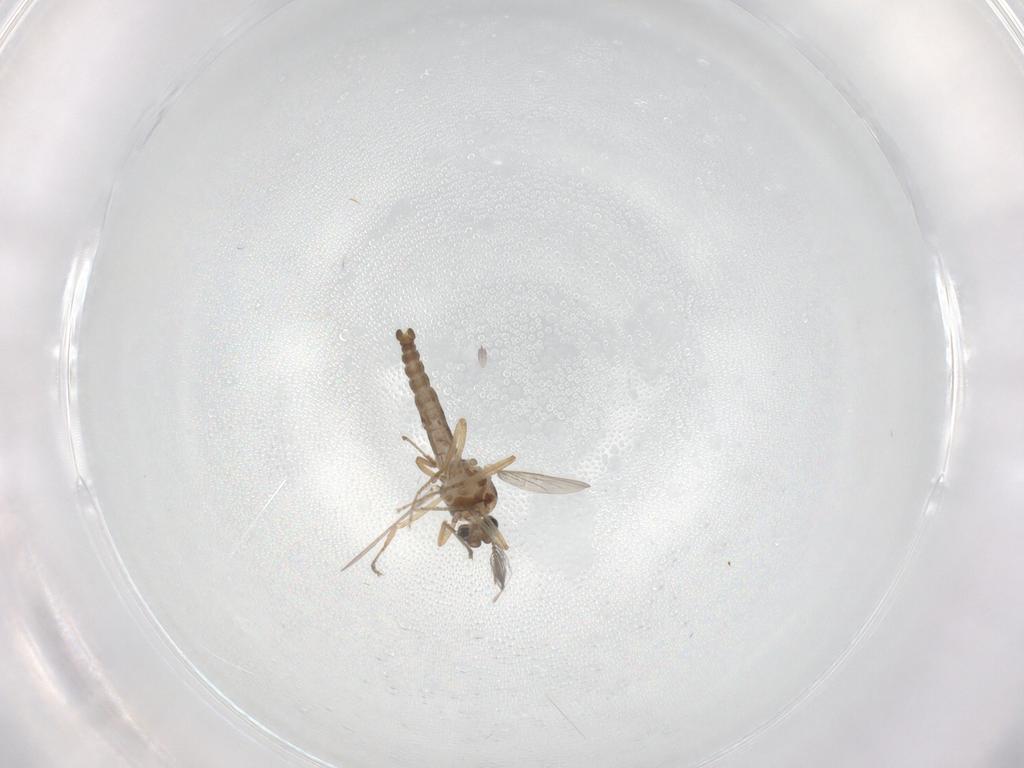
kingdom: Animalia
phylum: Arthropoda
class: Insecta
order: Diptera
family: Ceratopogonidae
